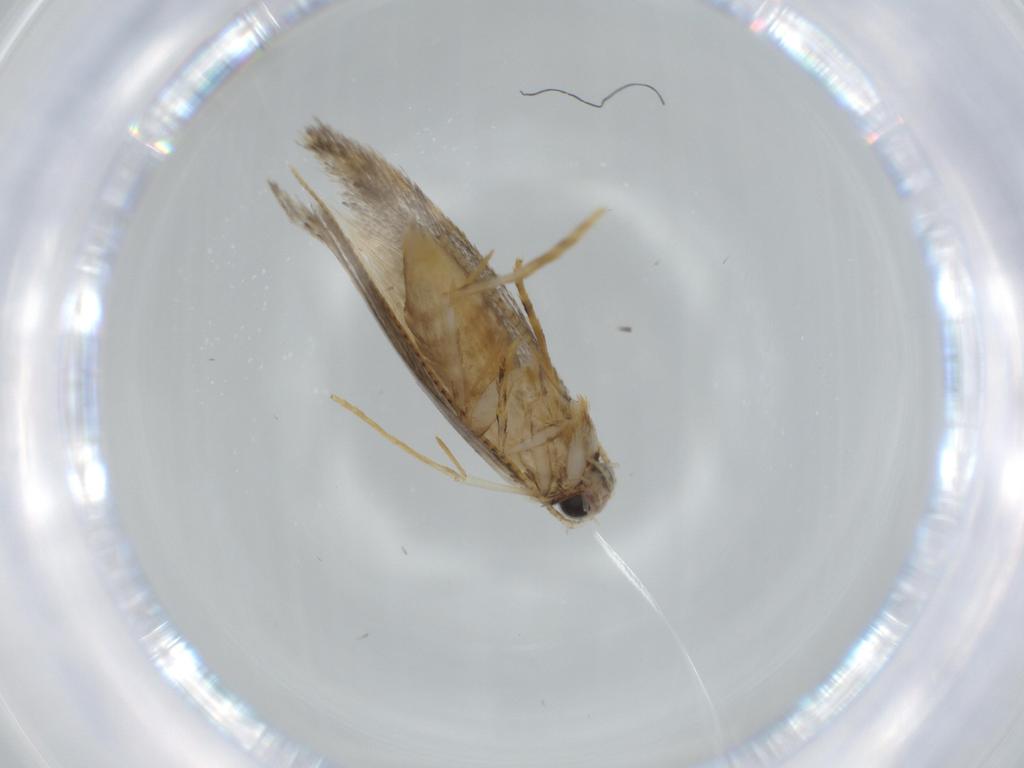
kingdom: Animalia
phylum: Arthropoda
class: Insecta
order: Lepidoptera
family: Tineidae
